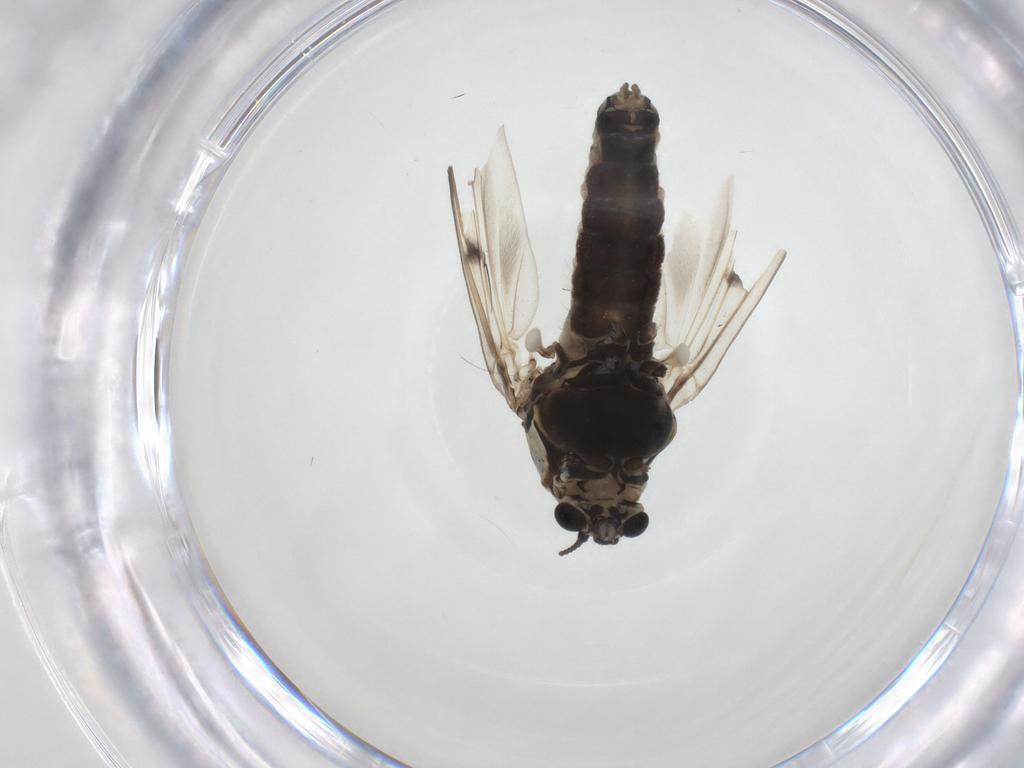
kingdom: Animalia
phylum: Arthropoda
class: Insecta
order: Diptera
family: Chironomidae
